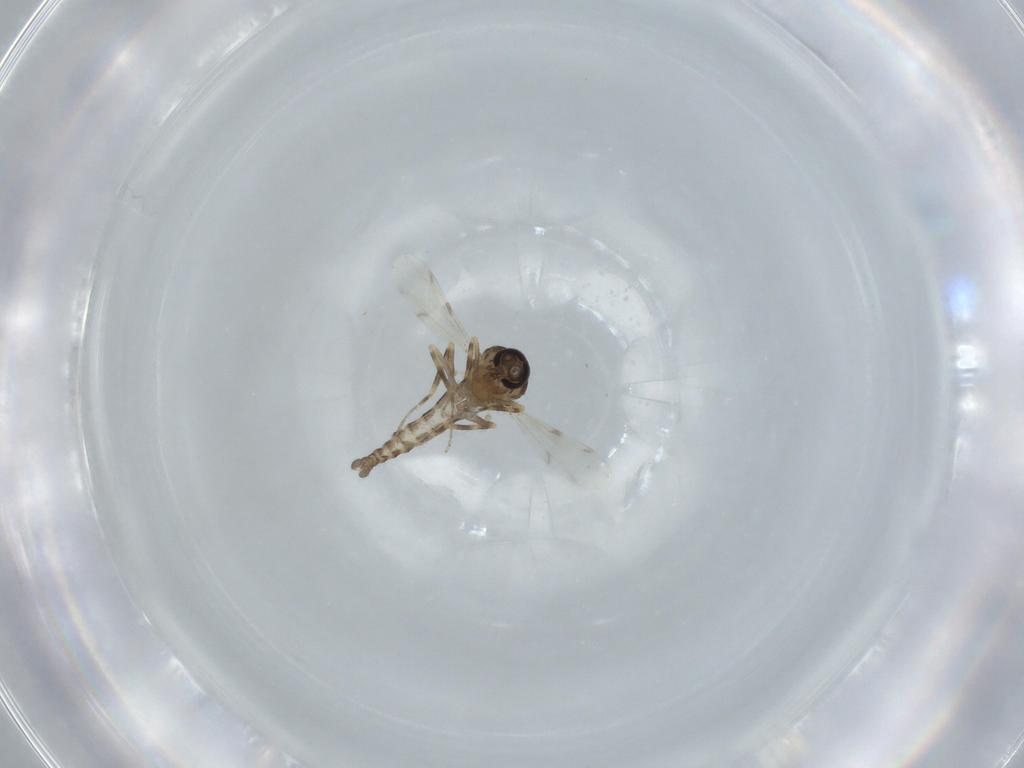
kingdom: Animalia
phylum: Arthropoda
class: Insecta
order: Diptera
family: Ceratopogonidae
